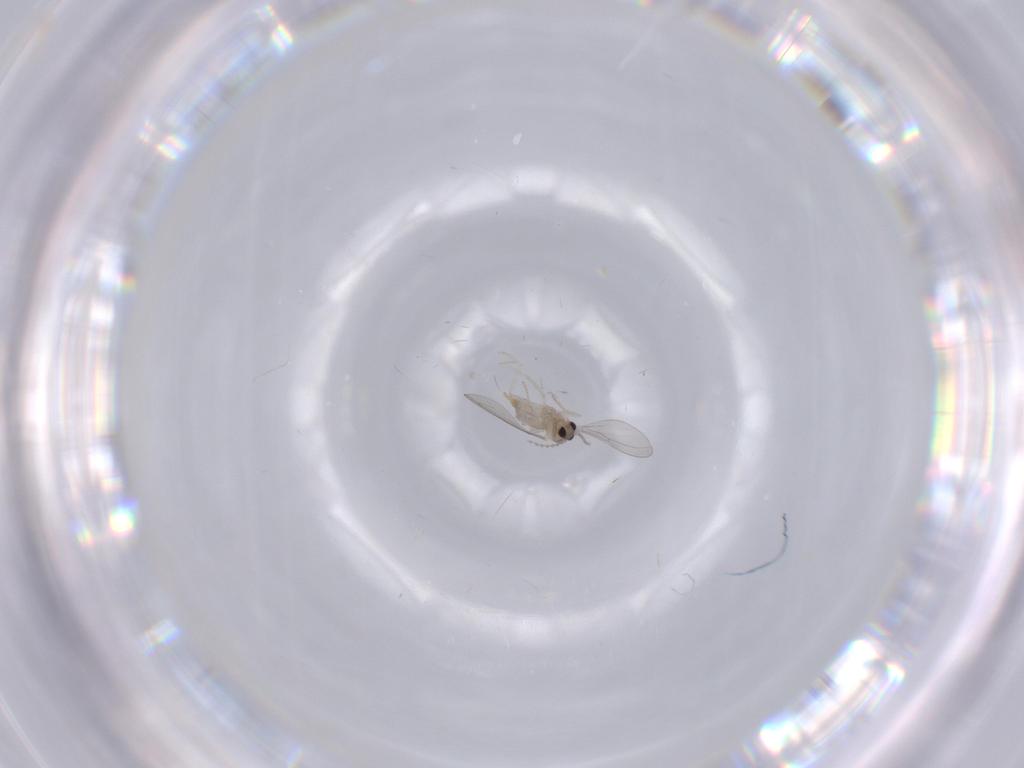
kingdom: Animalia
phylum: Arthropoda
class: Insecta
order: Diptera
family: Cecidomyiidae
